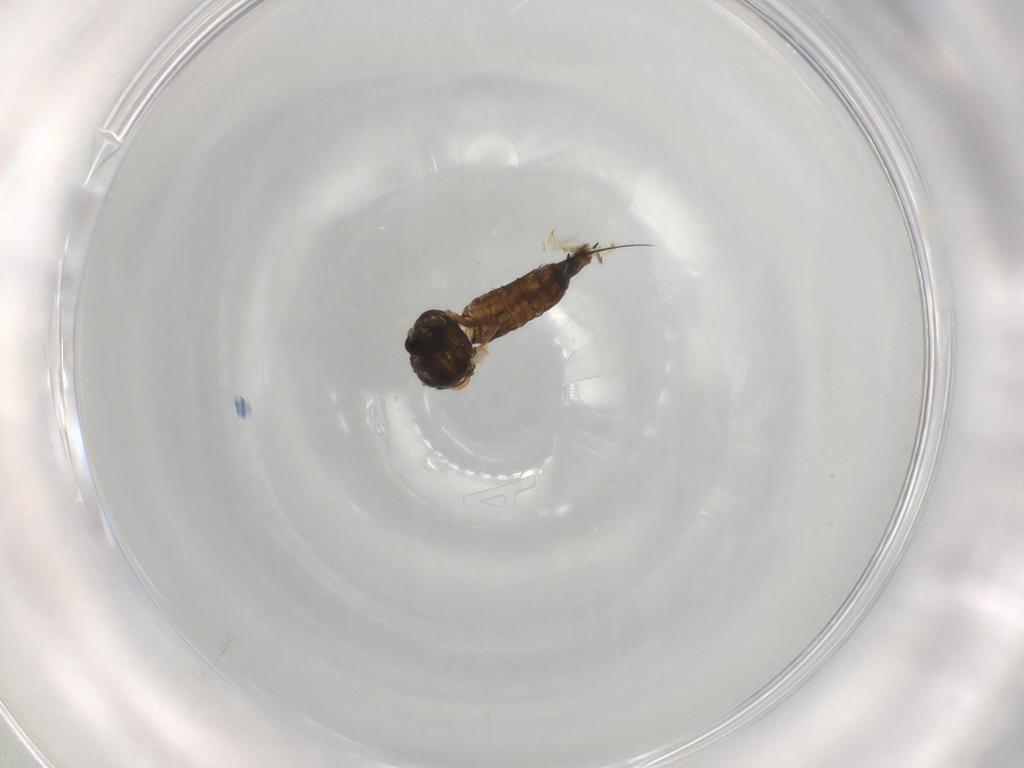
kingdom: Animalia
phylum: Arthropoda
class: Insecta
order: Diptera
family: Chironomidae
